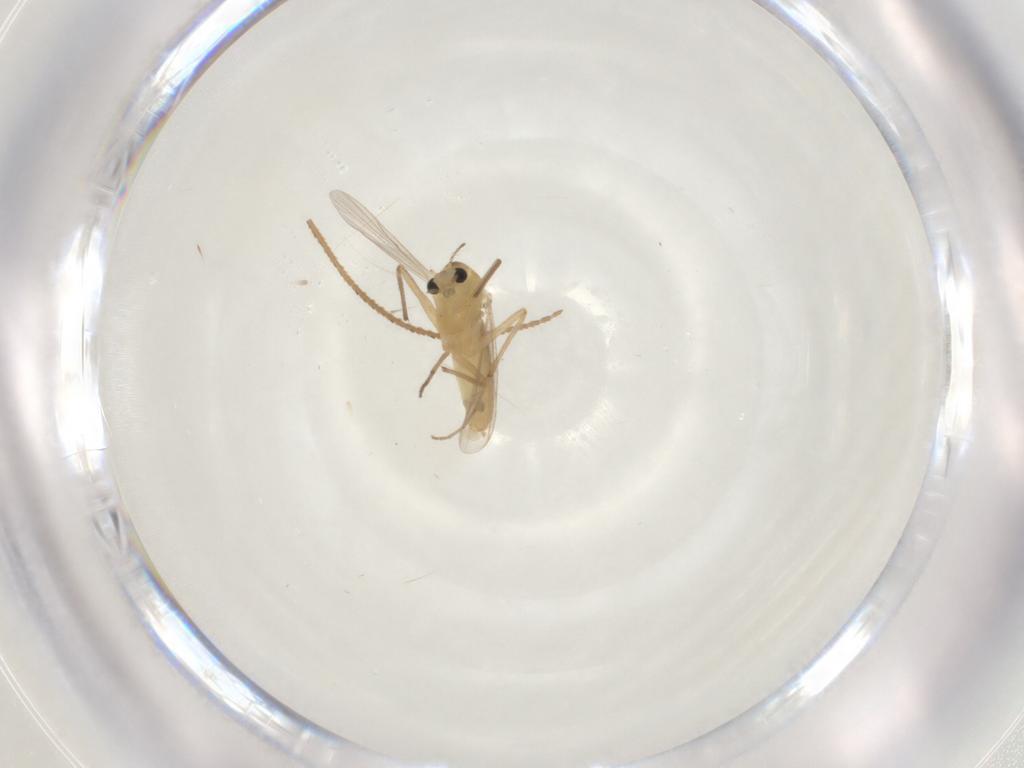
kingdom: Animalia
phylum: Arthropoda
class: Insecta
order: Diptera
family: Chironomidae
